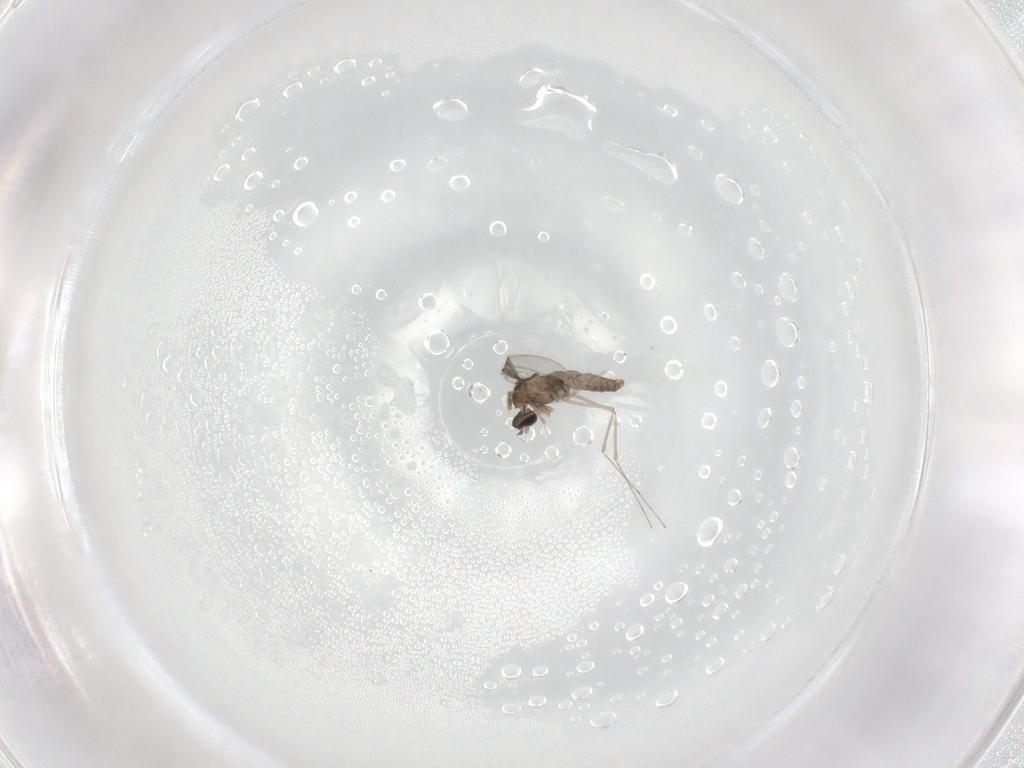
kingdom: Animalia
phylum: Arthropoda
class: Insecta
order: Diptera
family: Cecidomyiidae
